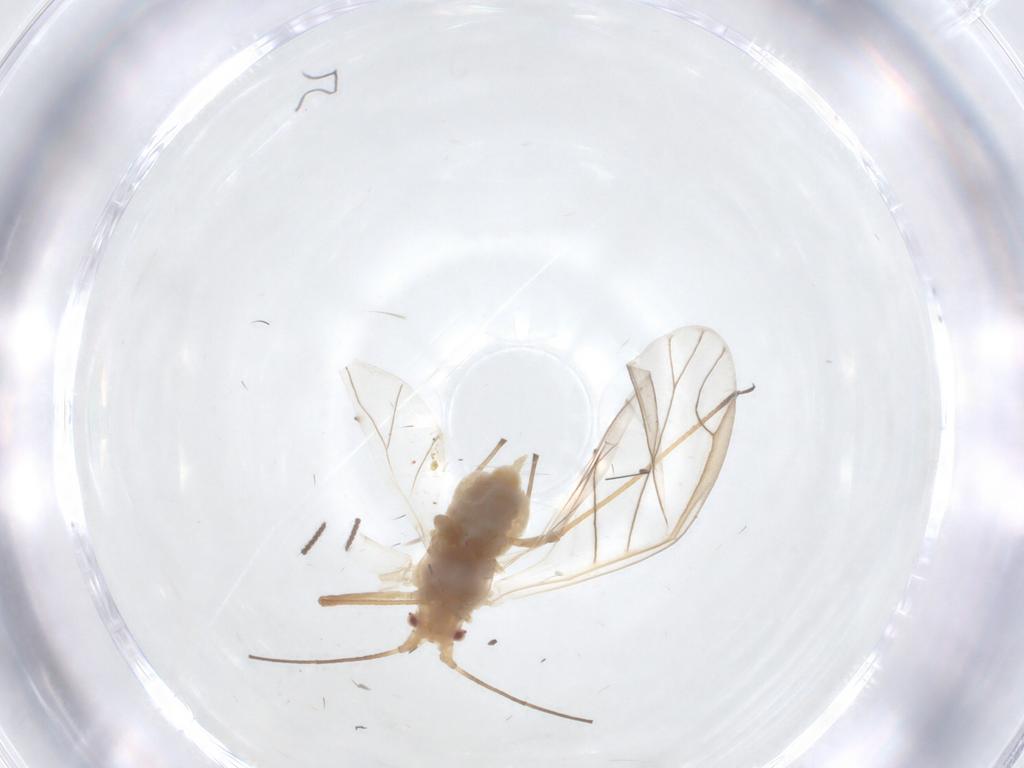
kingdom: Animalia
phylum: Arthropoda
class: Insecta
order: Hemiptera
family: Aphididae
